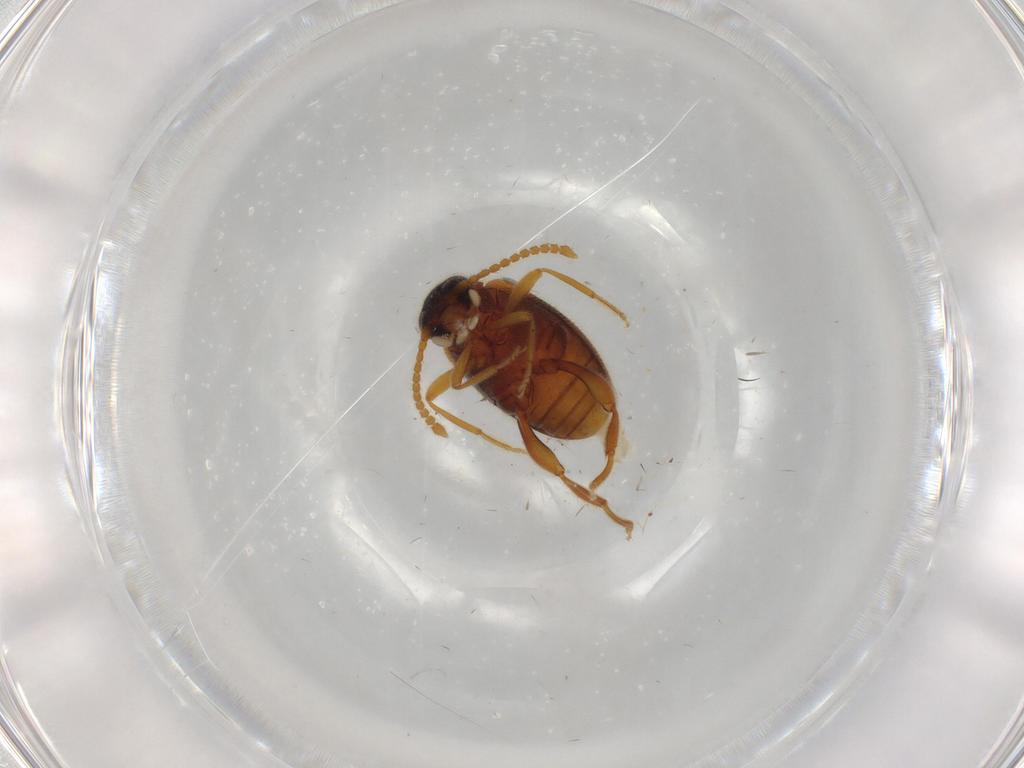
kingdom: Animalia
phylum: Arthropoda
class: Insecta
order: Coleoptera
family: Aderidae
